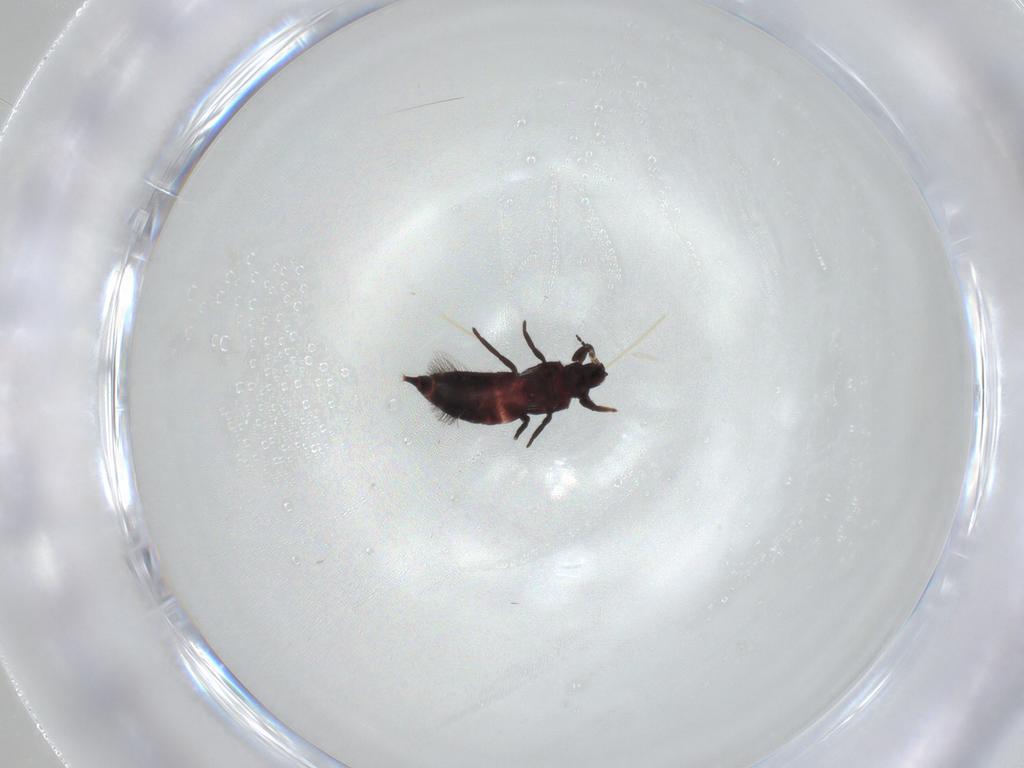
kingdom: Animalia
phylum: Arthropoda
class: Insecta
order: Thysanoptera
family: Phlaeothripidae
